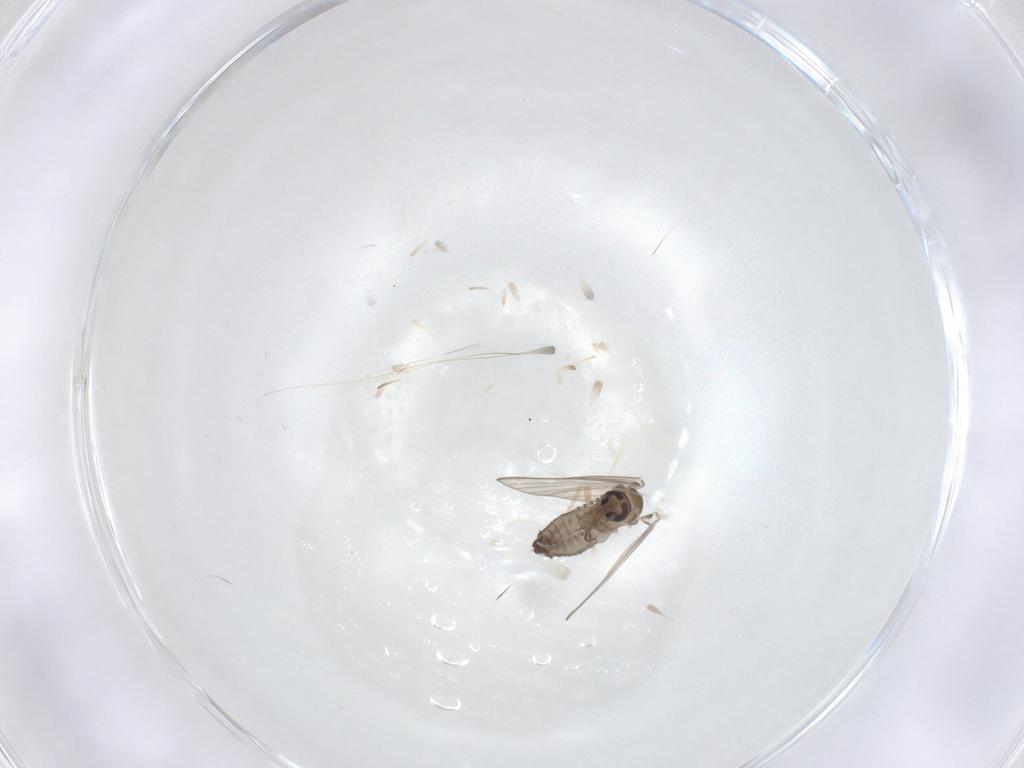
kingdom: Animalia
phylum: Arthropoda
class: Insecta
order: Diptera
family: Psychodidae
